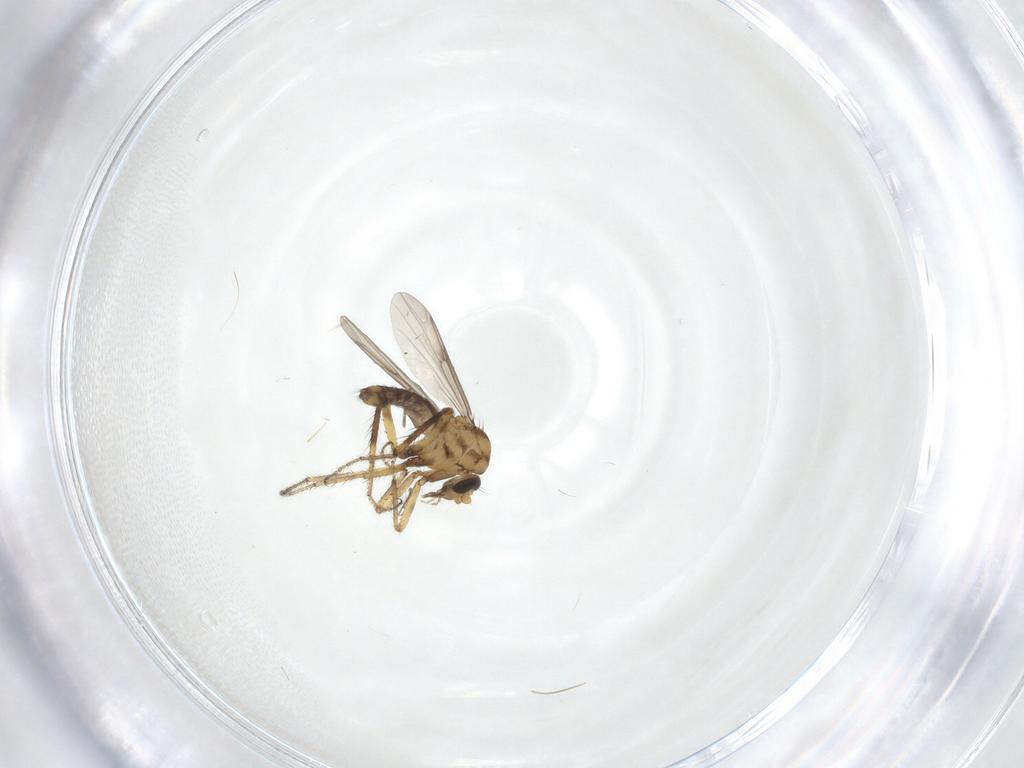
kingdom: Animalia
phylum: Arthropoda
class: Insecta
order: Diptera
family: Phoridae
